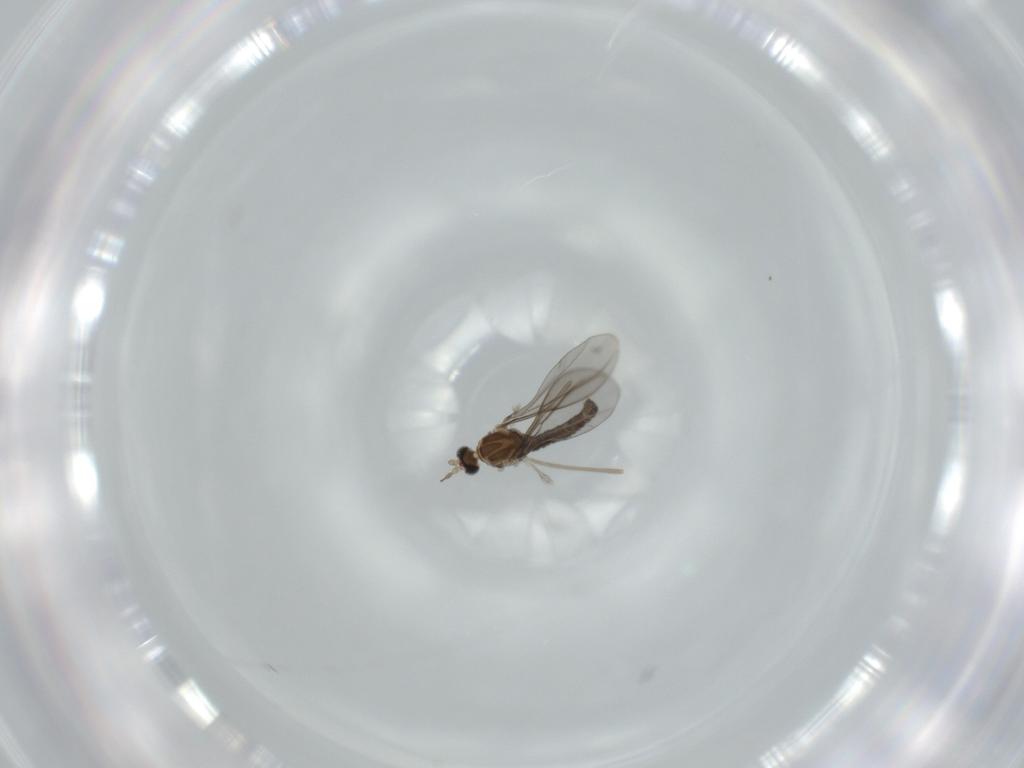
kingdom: Animalia
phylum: Arthropoda
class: Insecta
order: Diptera
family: Cecidomyiidae
